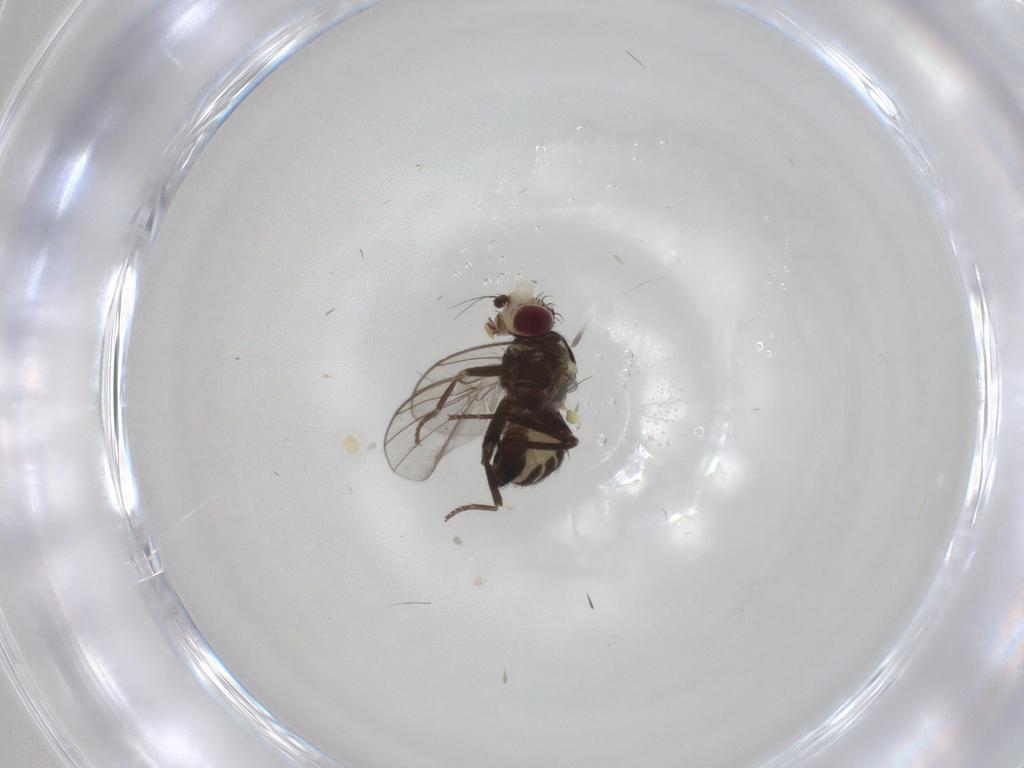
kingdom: Animalia
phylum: Arthropoda
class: Insecta
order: Diptera
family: Agromyzidae
